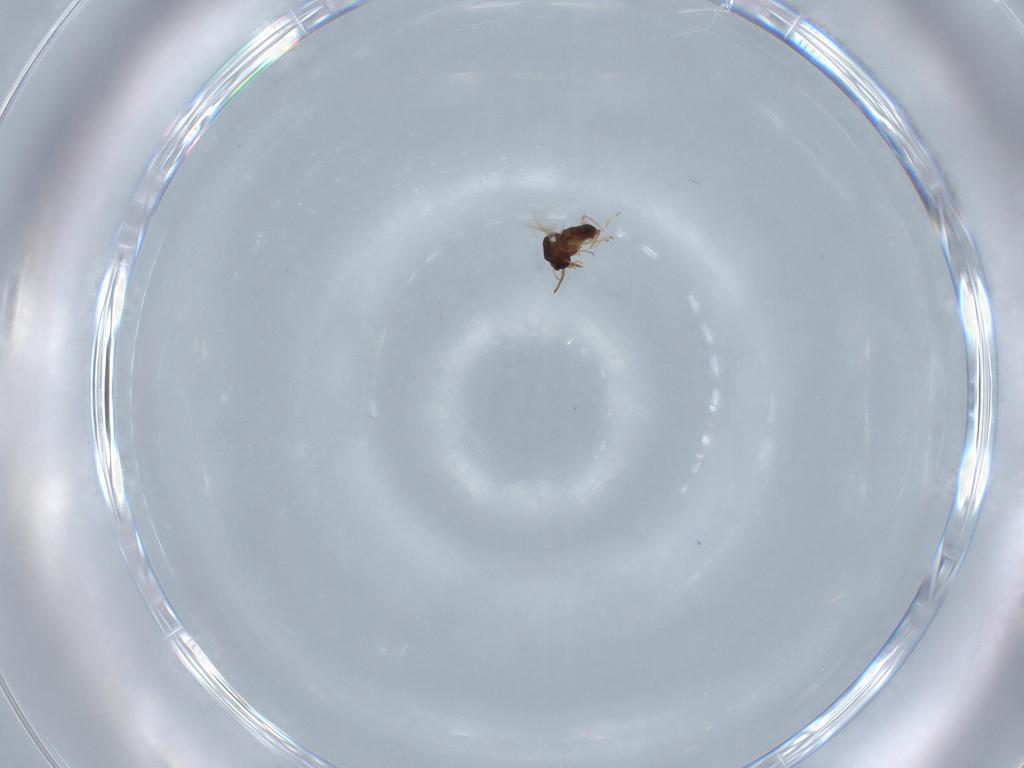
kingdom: Animalia
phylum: Arthropoda
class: Insecta
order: Diptera
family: Ceratopogonidae
